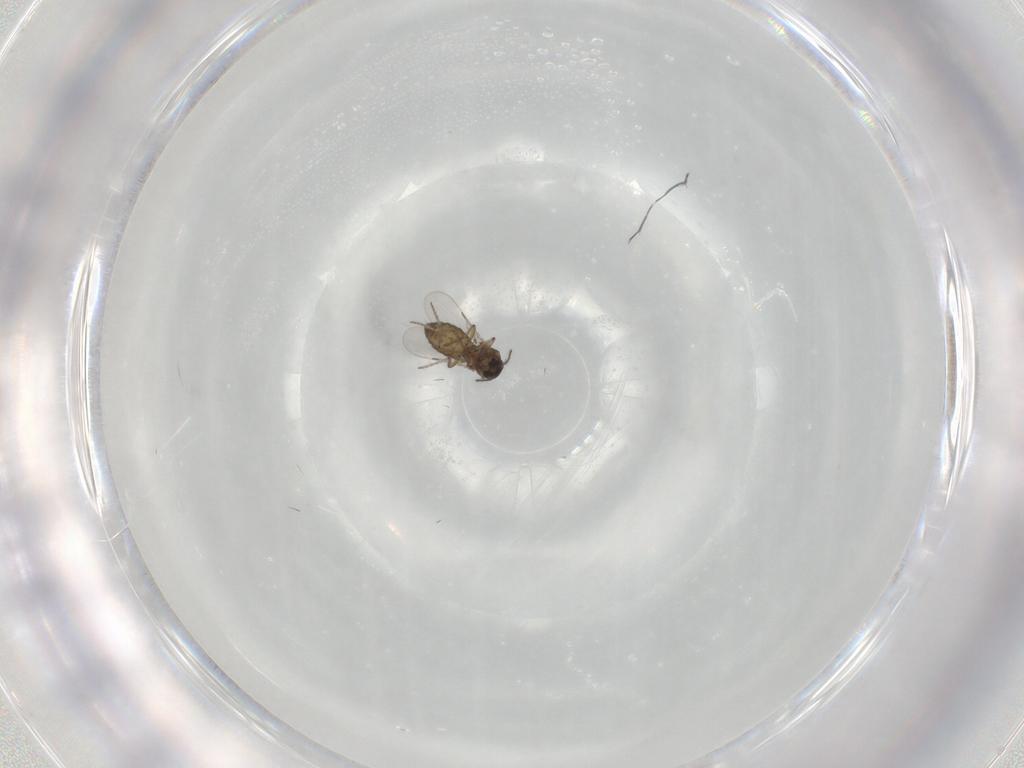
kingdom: Animalia
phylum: Arthropoda
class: Insecta
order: Diptera
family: Ceratopogonidae
